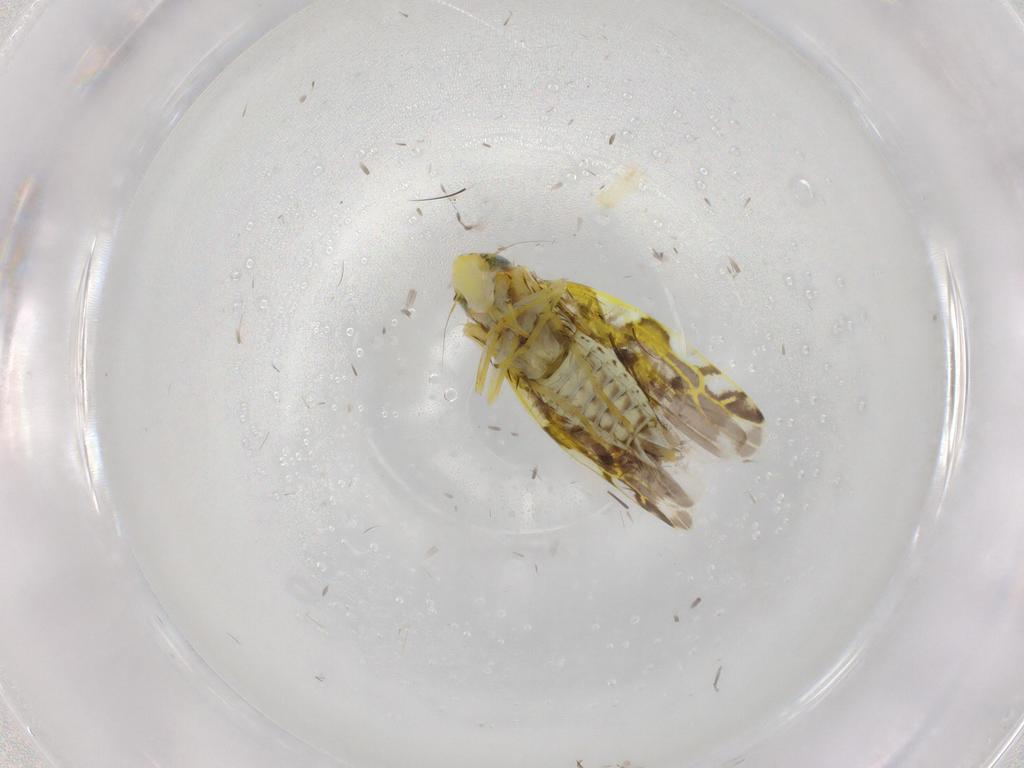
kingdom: Animalia
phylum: Arthropoda
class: Insecta
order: Hemiptera
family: Cicadellidae
